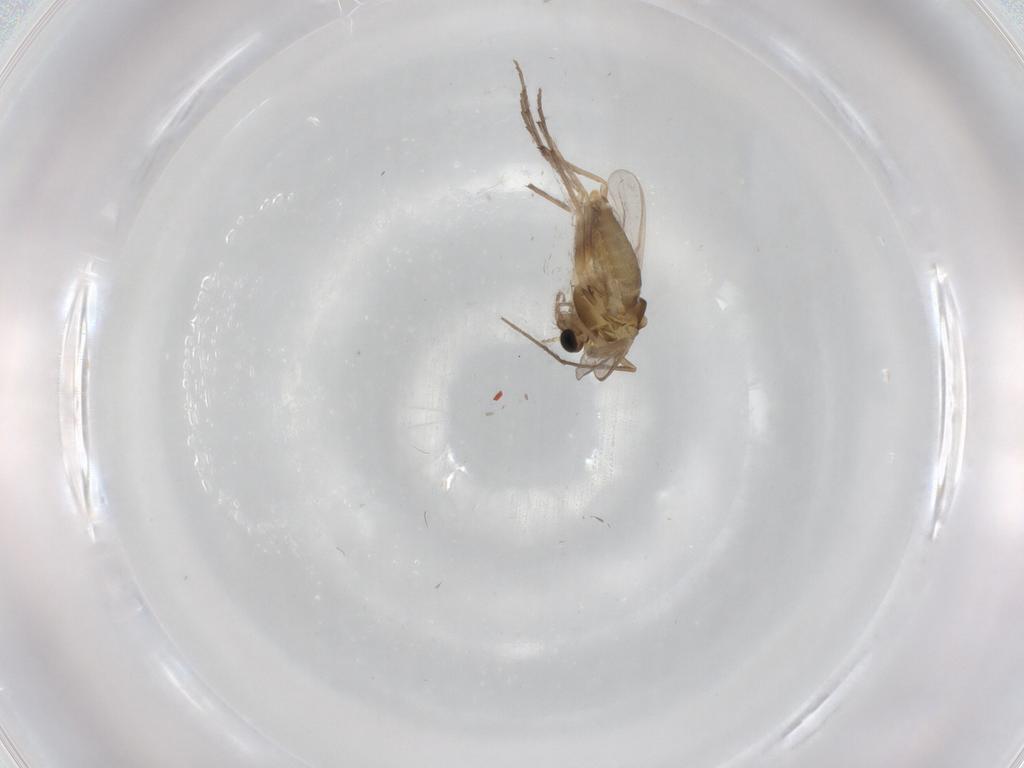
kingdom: Animalia
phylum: Arthropoda
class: Insecta
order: Diptera
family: Chironomidae
